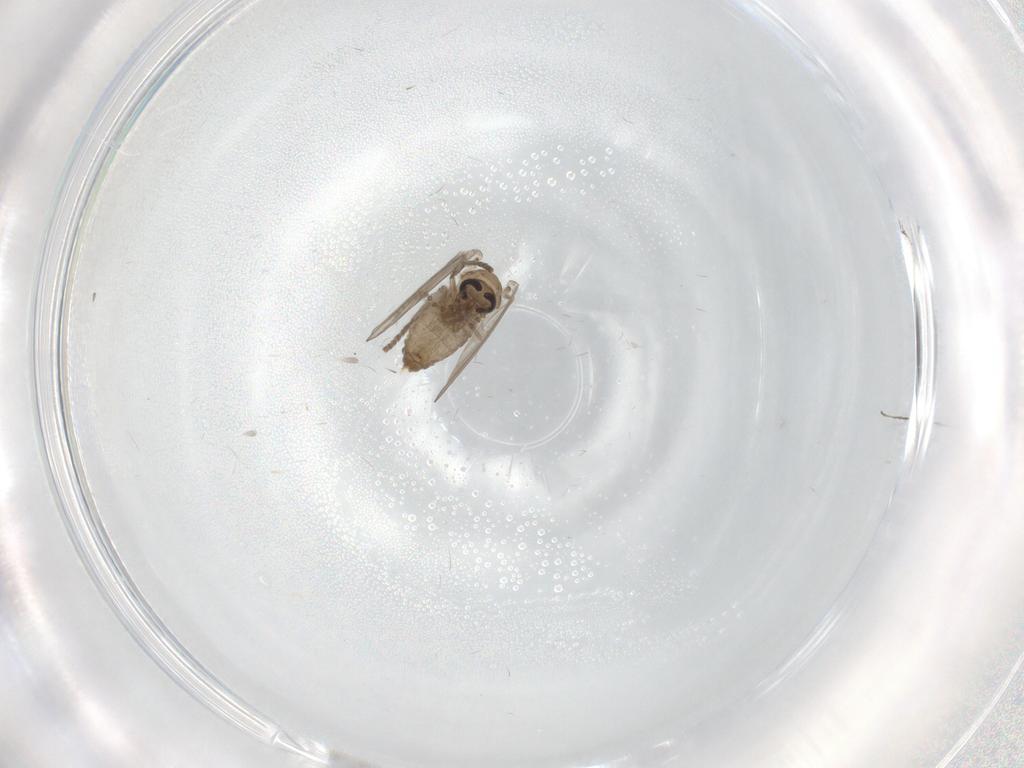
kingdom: Animalia
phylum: Arthropoda
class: Insecta
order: Diptera
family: Psychodidae
